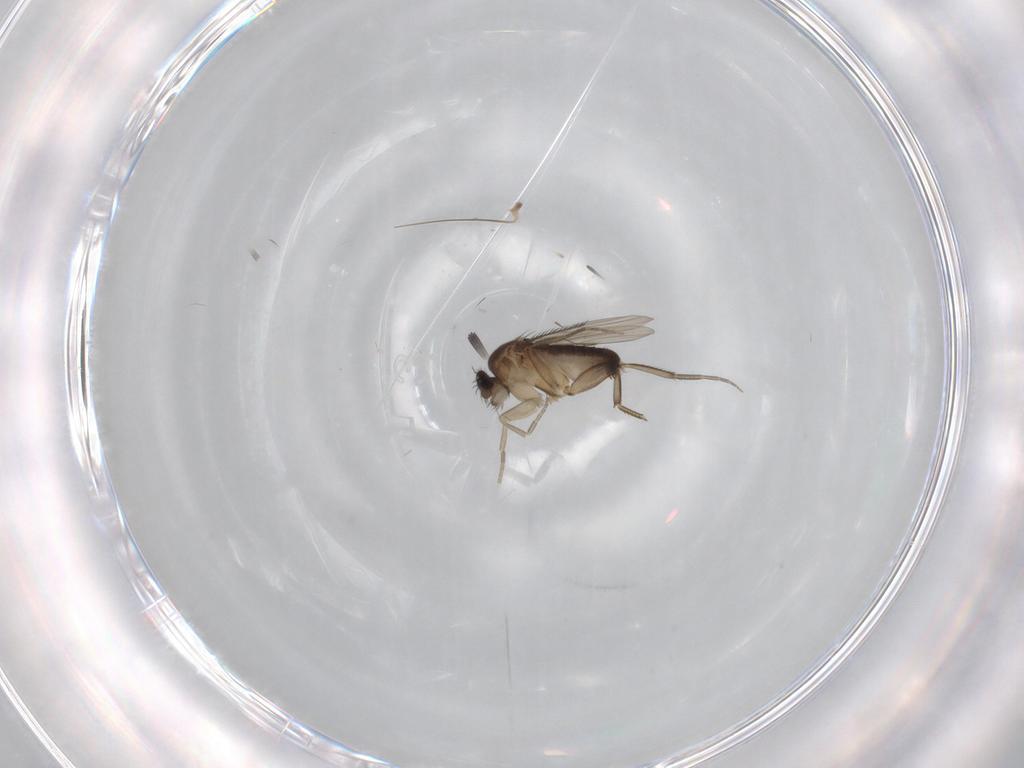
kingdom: Animalia
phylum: Arthropoda
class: Insecta
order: Diptera
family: Phoridae
